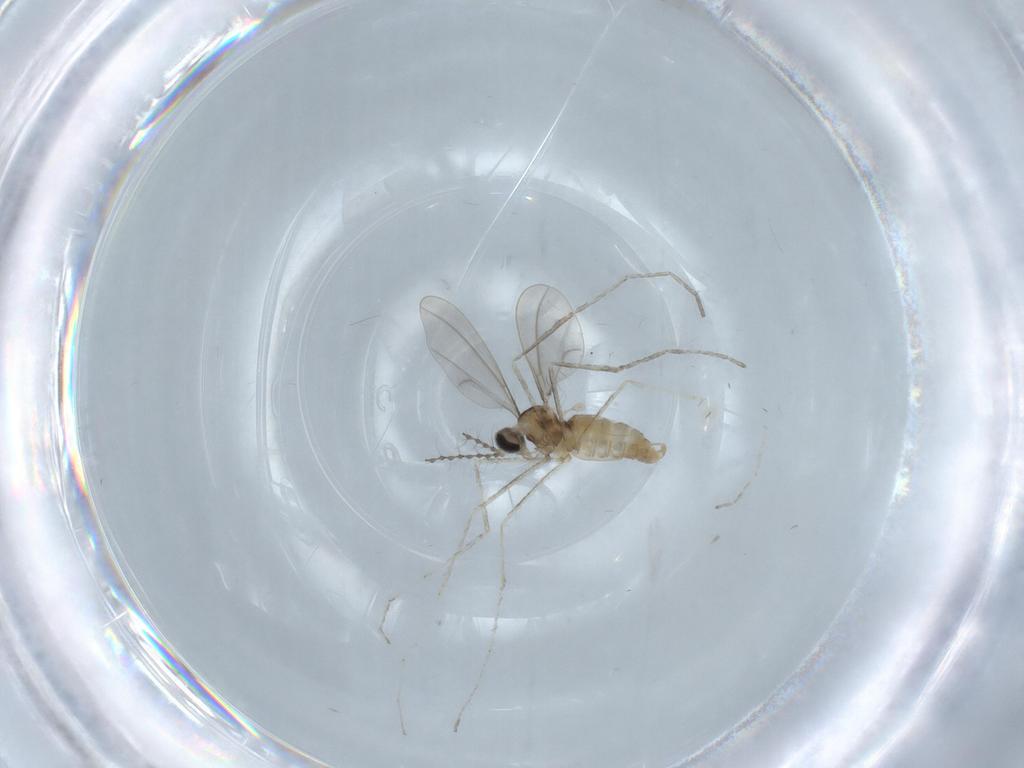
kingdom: Animalia
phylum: Arthropoda
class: Insecta
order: Diptera
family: Cecidomyiidae
